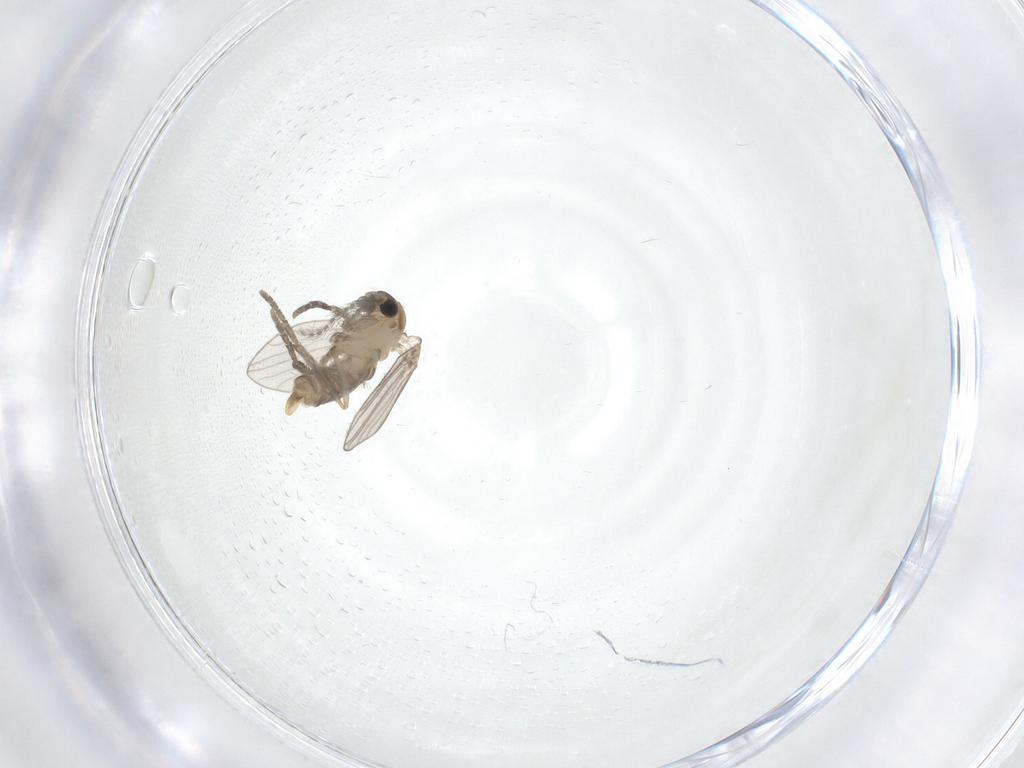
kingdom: Animalia
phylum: Arthropoda
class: Insecta
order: Diptera
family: Psychodidae
